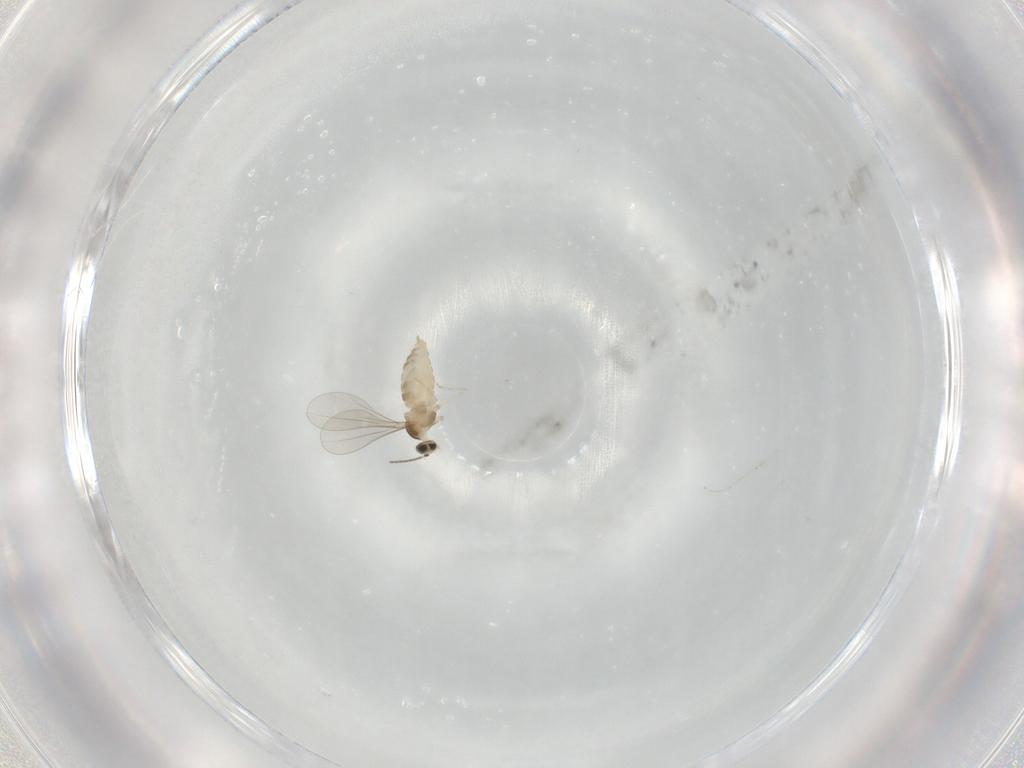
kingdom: Animalia
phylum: Arthropoda
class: Insecta
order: Diptera
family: Cecidomyiidae
